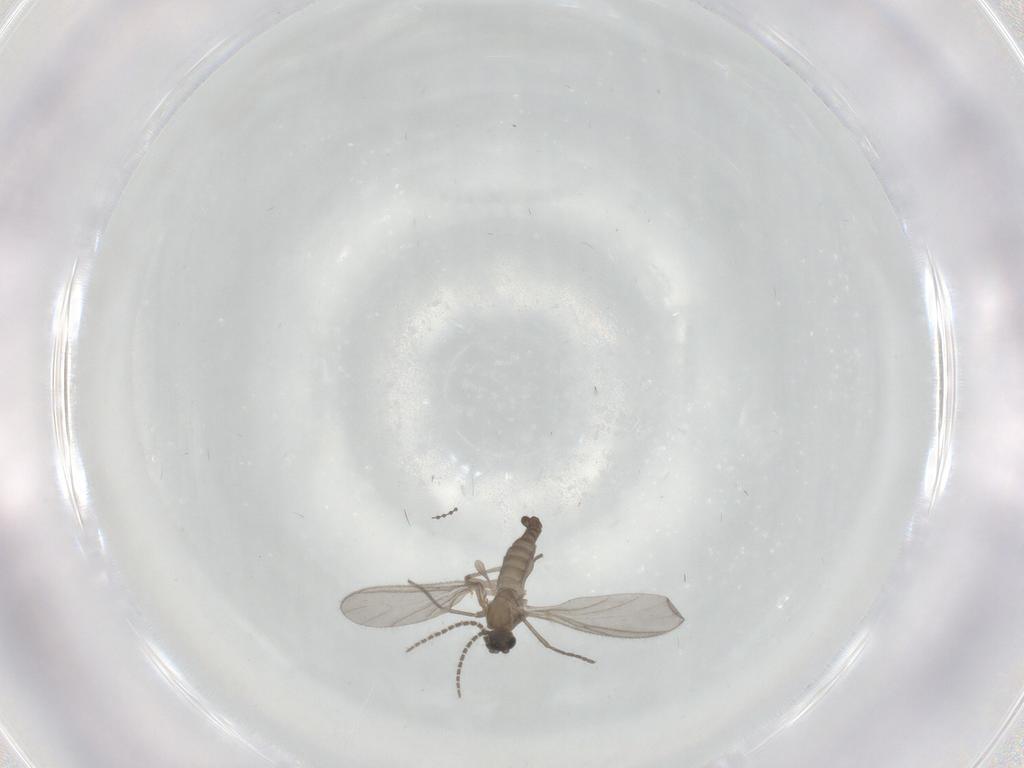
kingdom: Animalia
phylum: Arthropoda
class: Insecta
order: Diptera
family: Sciaridae
